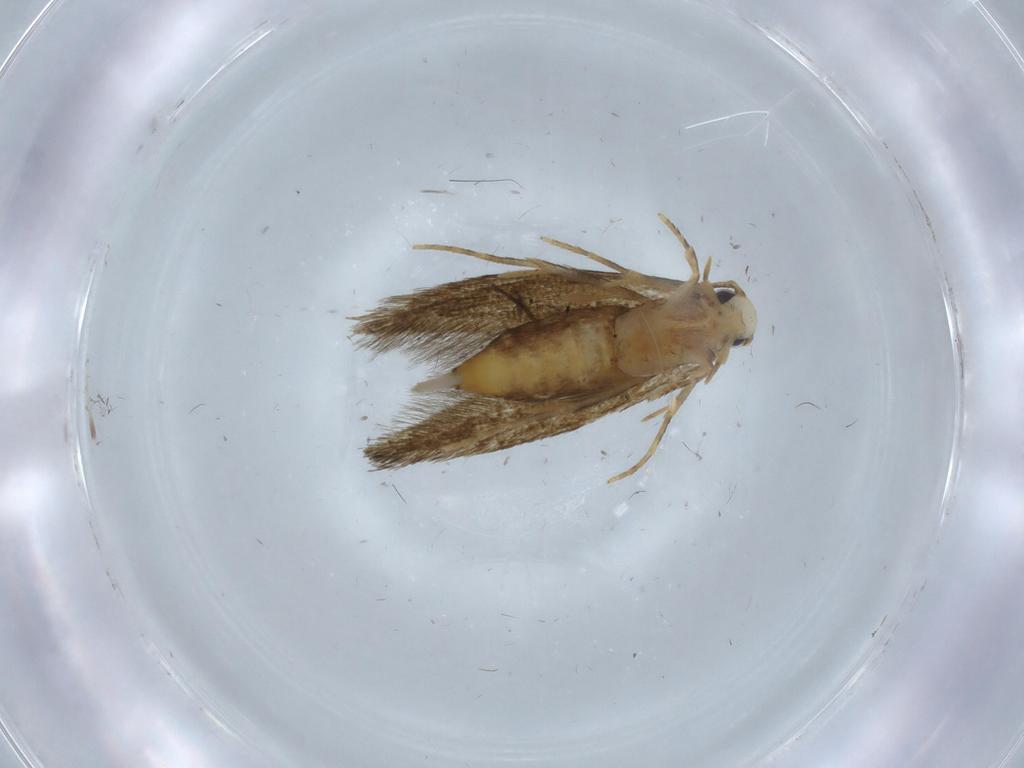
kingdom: Animalia
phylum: Arthropoda
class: Insecta
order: Lepidoptera
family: Tineidae
